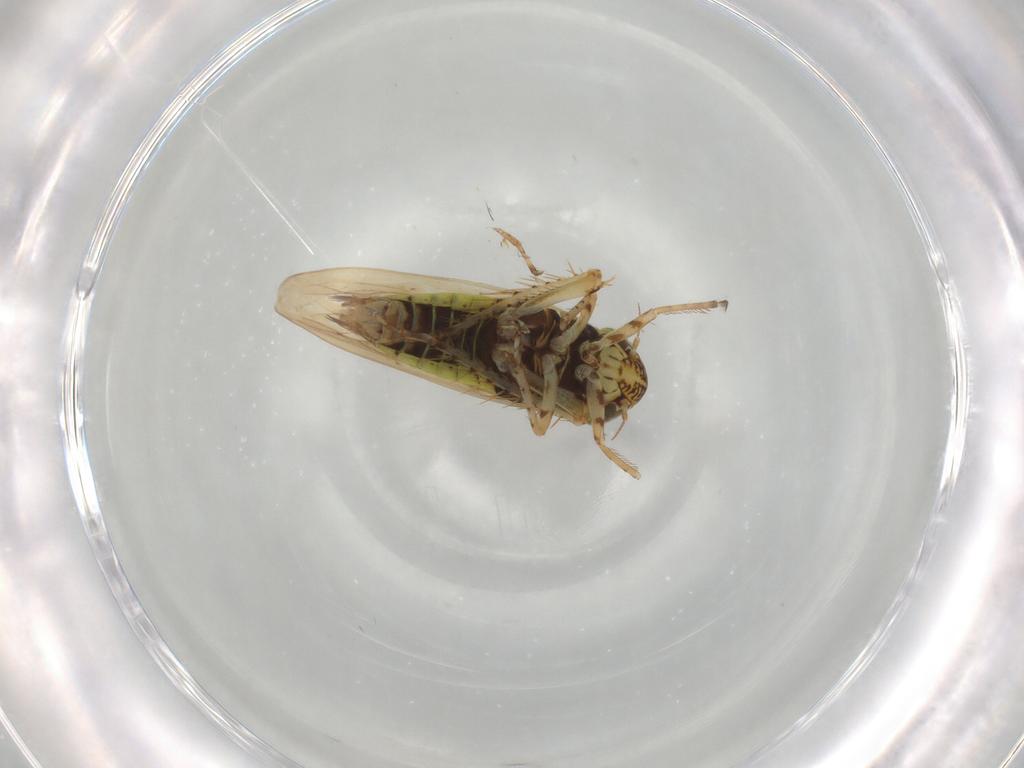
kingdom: Animalia
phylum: Arthropoda
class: Insecta
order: Hemiptera
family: Cicadellidae
